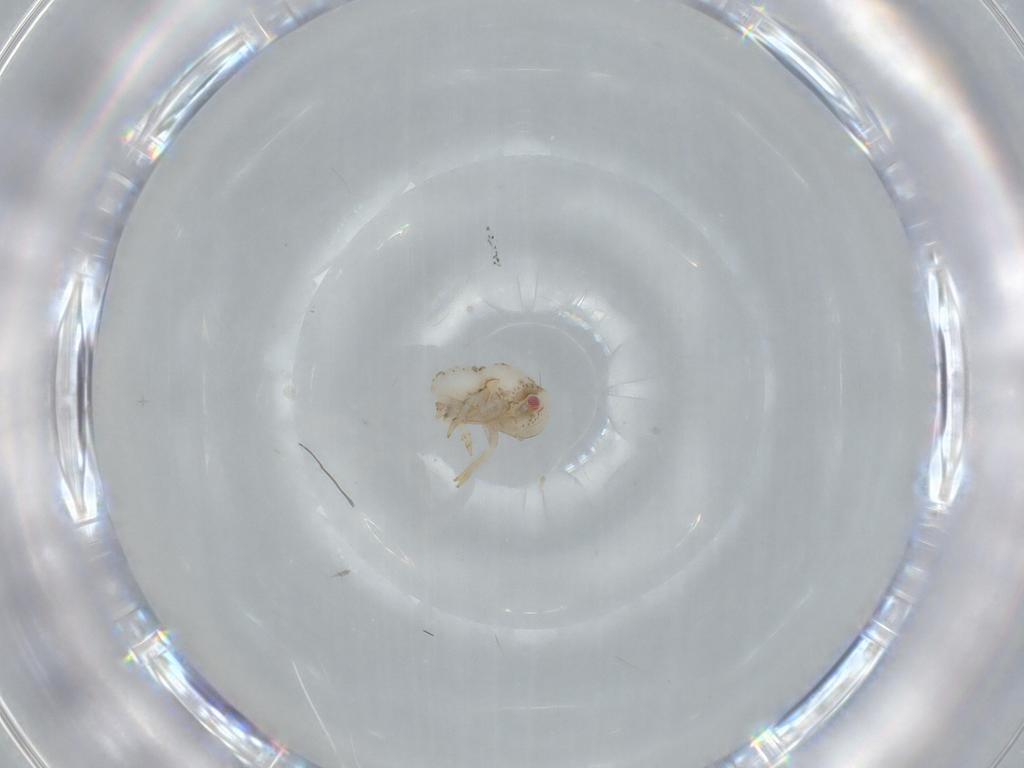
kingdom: Animalia
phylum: Arthropoda
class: Insecta
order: Hemiptera
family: Acanaloniidae
